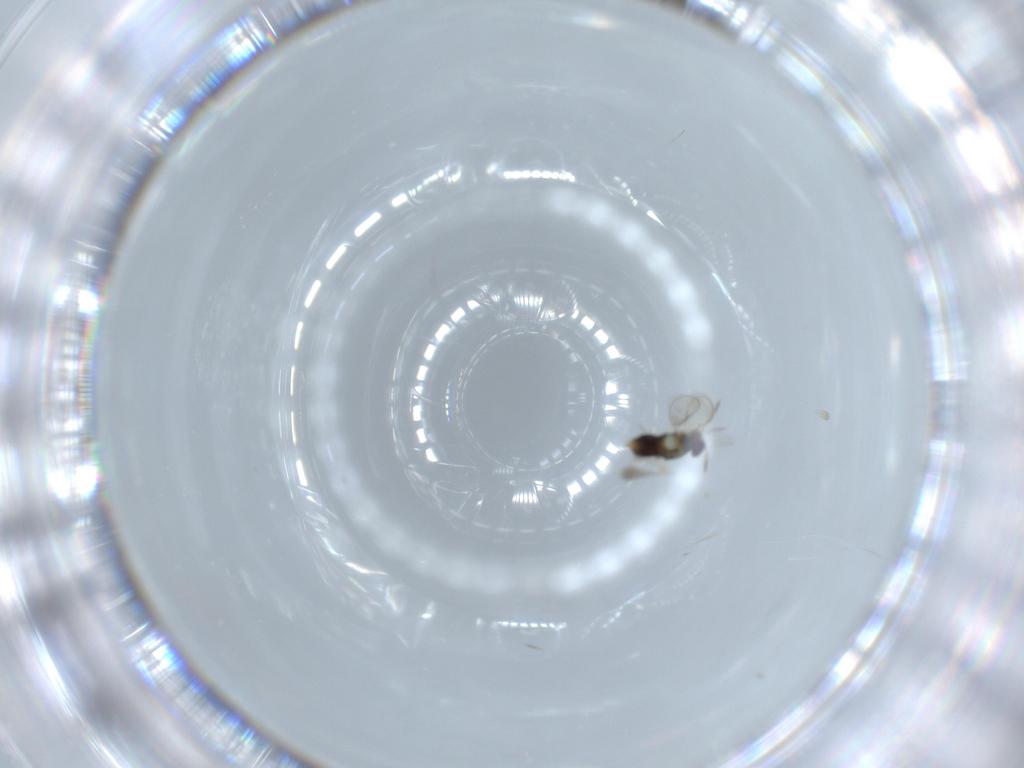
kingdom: Animalia
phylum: Arthropoda
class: Insecta
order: Hymenoptera
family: Aphelinidae
